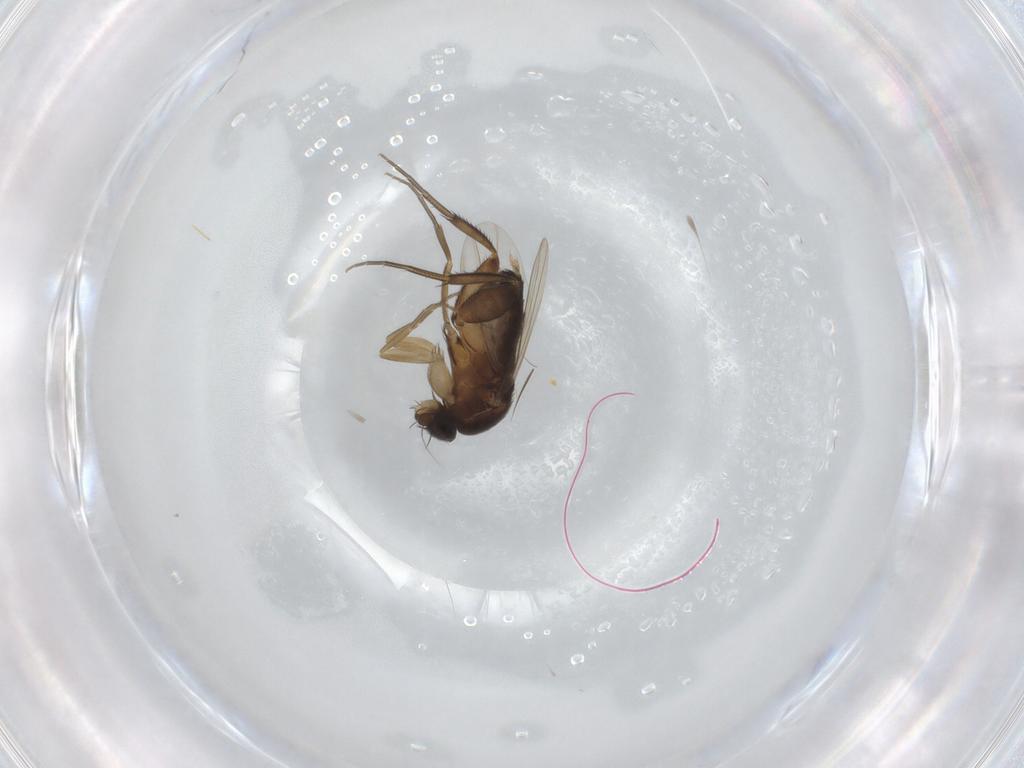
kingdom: Animalia
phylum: Arthropoda
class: Insecta
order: Diptera
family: Phoridae
